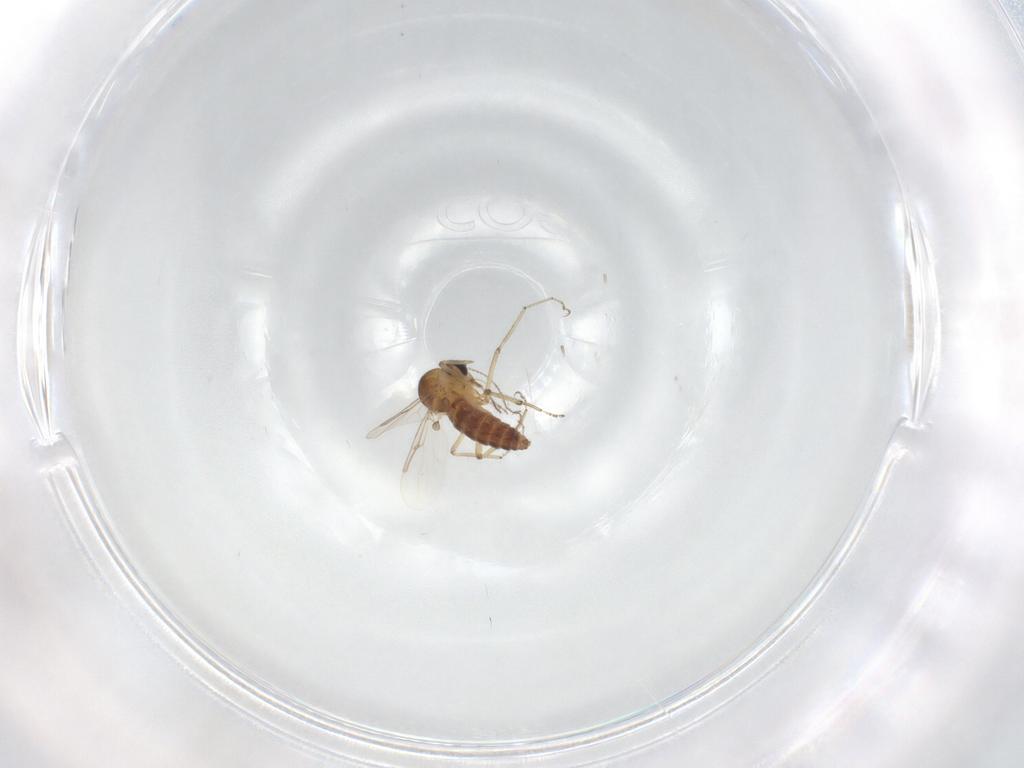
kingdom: Animalia
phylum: Arthropoda
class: Insecta
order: Diptera
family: Ceratopogonidae
